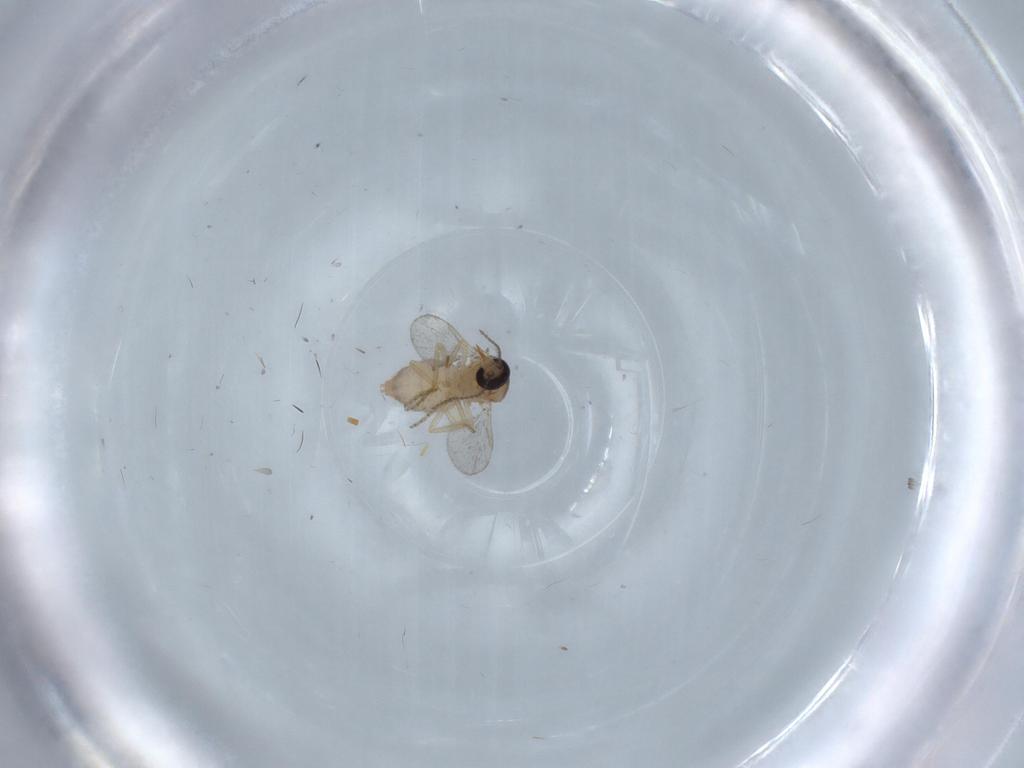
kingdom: Animalia
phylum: Arthropoda
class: Insecta
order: Diptera
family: Ceratopogonidae
